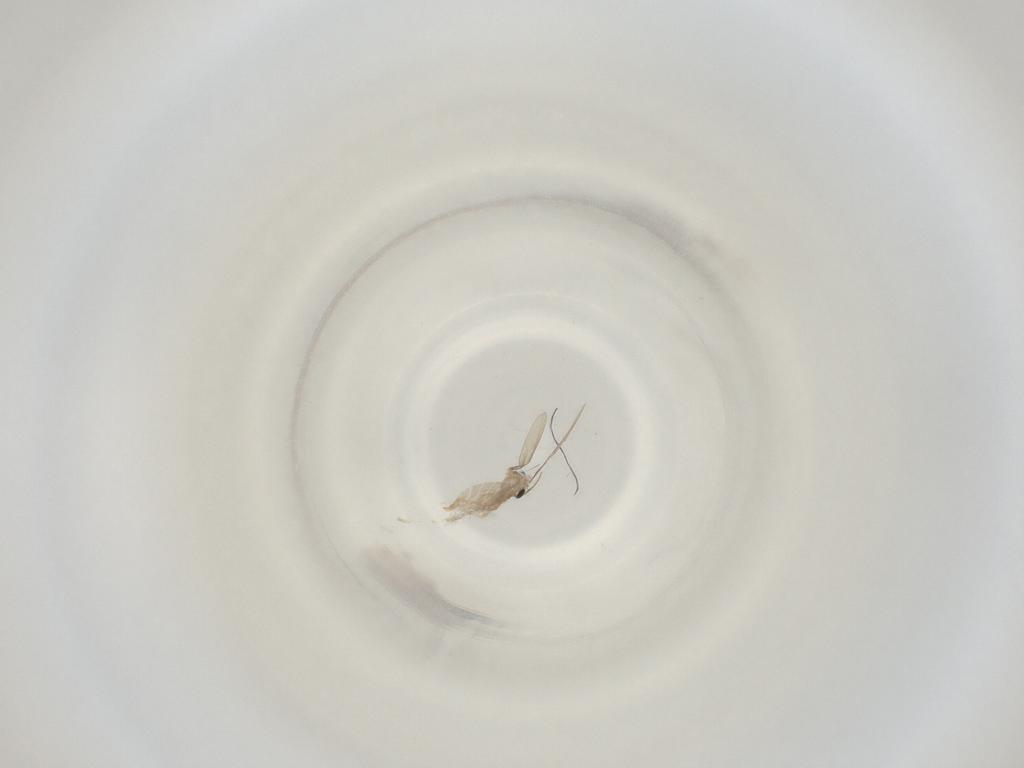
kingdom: Animalia
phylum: Arthropoda
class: Insecta
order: Diptera
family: Cecidomyiidae
